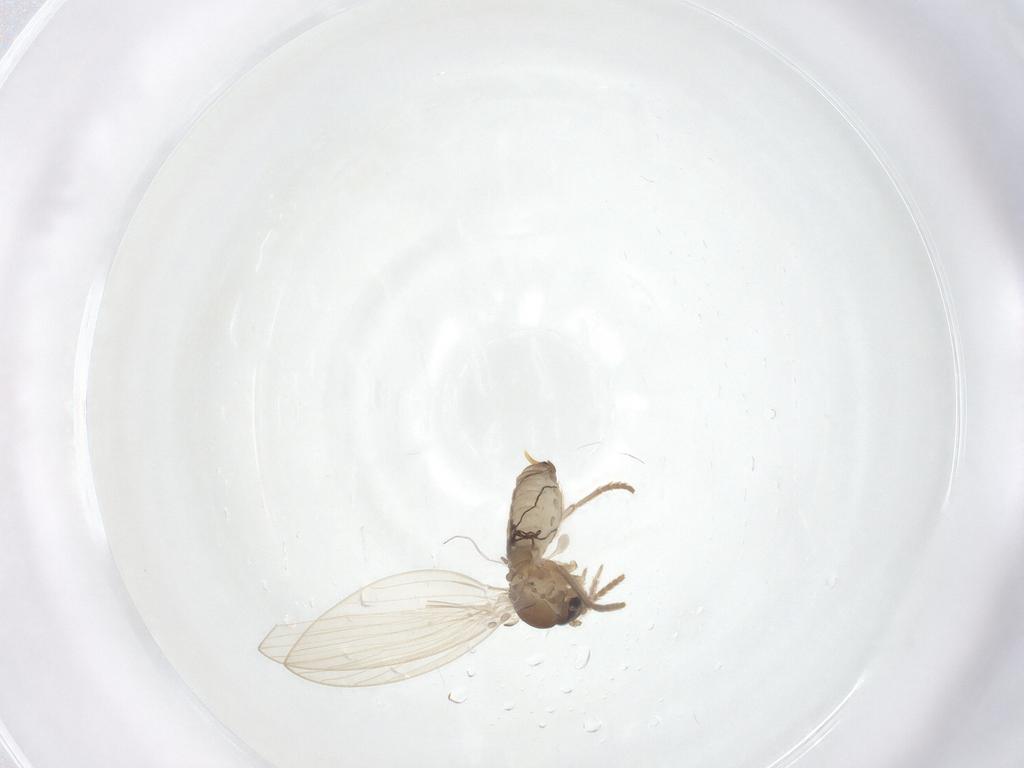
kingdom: Animalia
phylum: Arthropoda
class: Insecta
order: Diptera
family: Psychodidae
